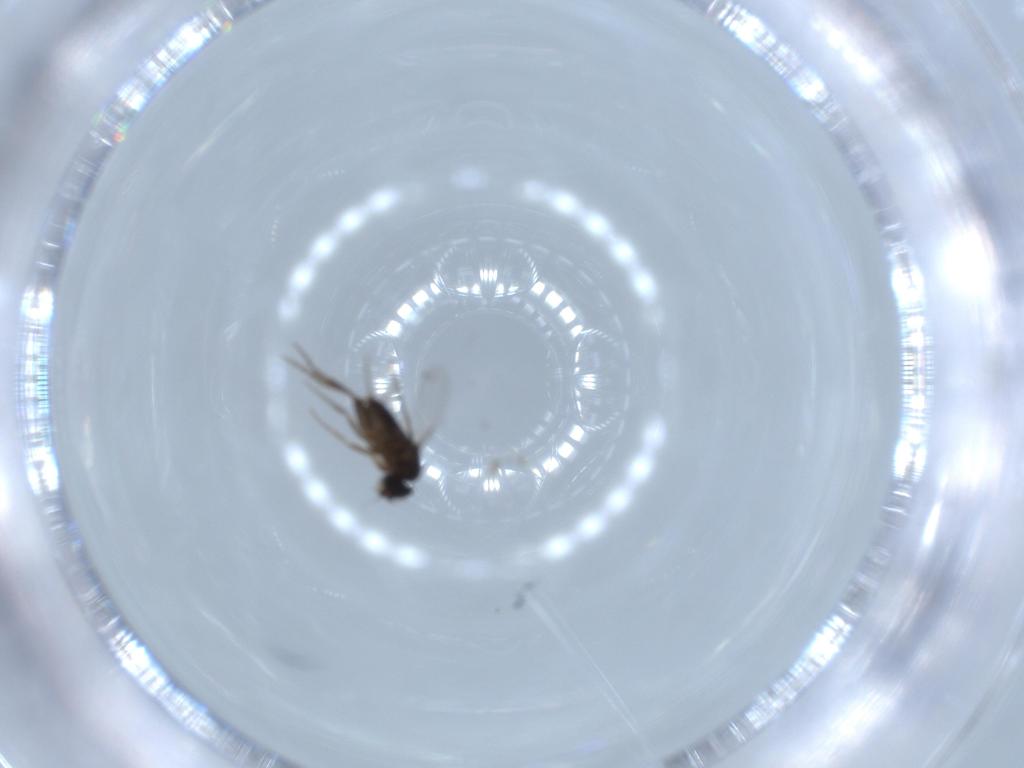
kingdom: Animalia
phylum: Arthropoda
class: Insecta
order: Diptera
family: Phoridae
